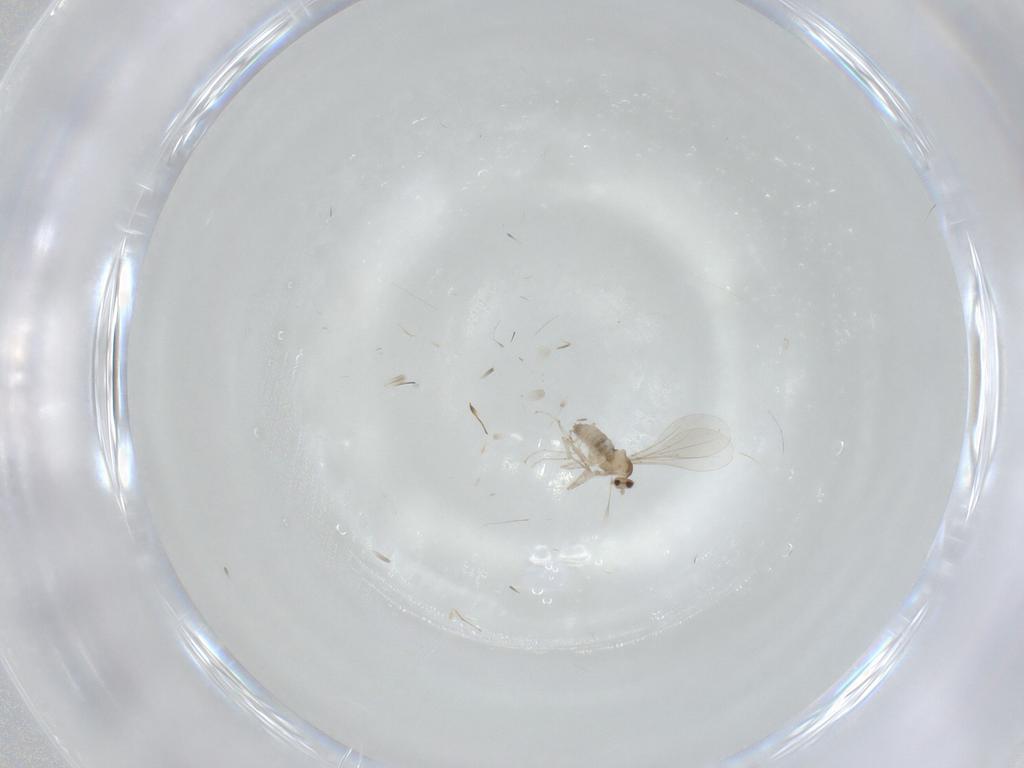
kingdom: Animalia
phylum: Arthropoda
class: Insecta
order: Diptera
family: Cecidomyiidae
